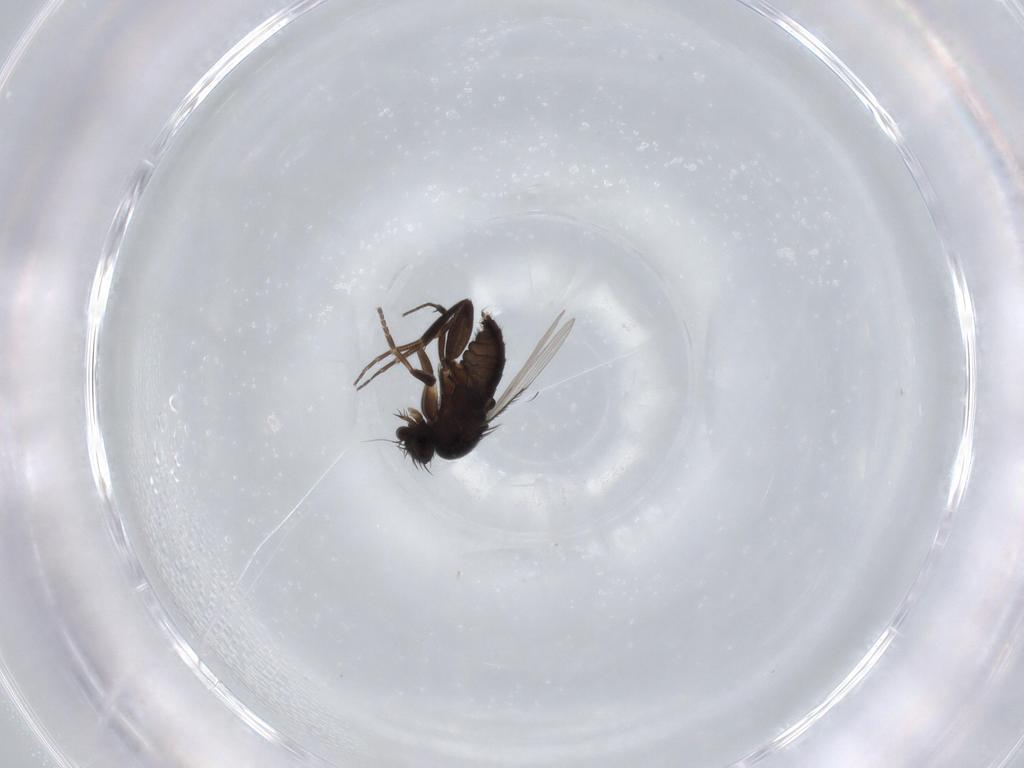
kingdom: Animalia
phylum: Arthropoda
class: Insecta
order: Diptera
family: Phoridae
